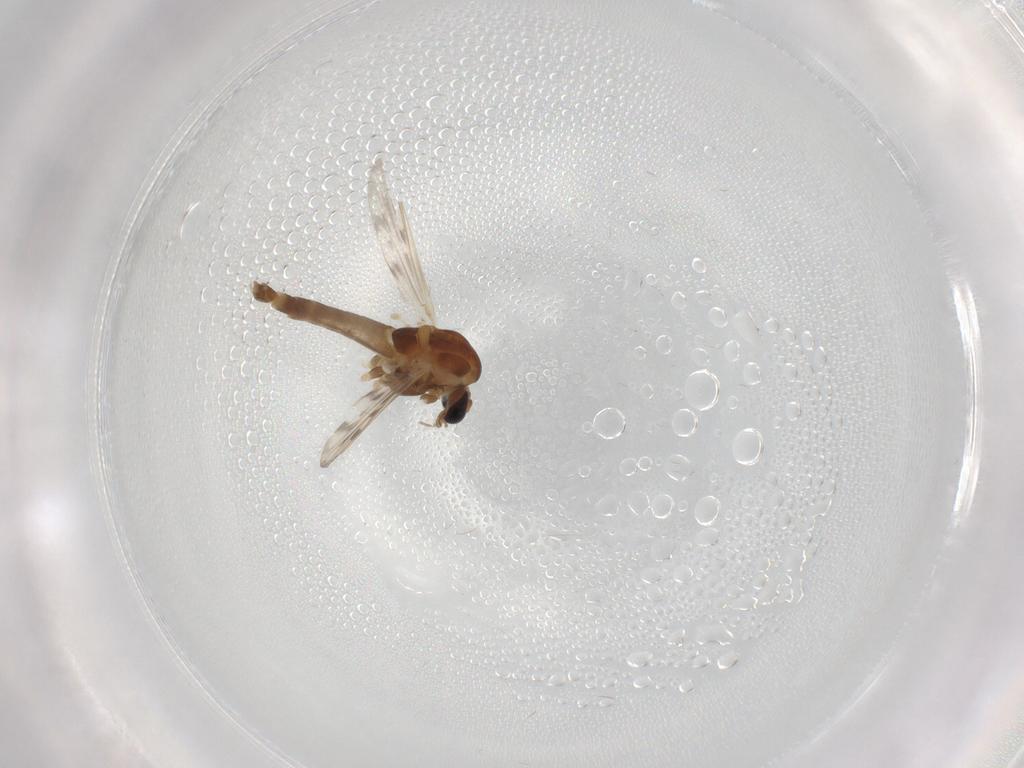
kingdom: Animalia
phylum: Arthropoda
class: Insecta
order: Diptera
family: Chironomidae
